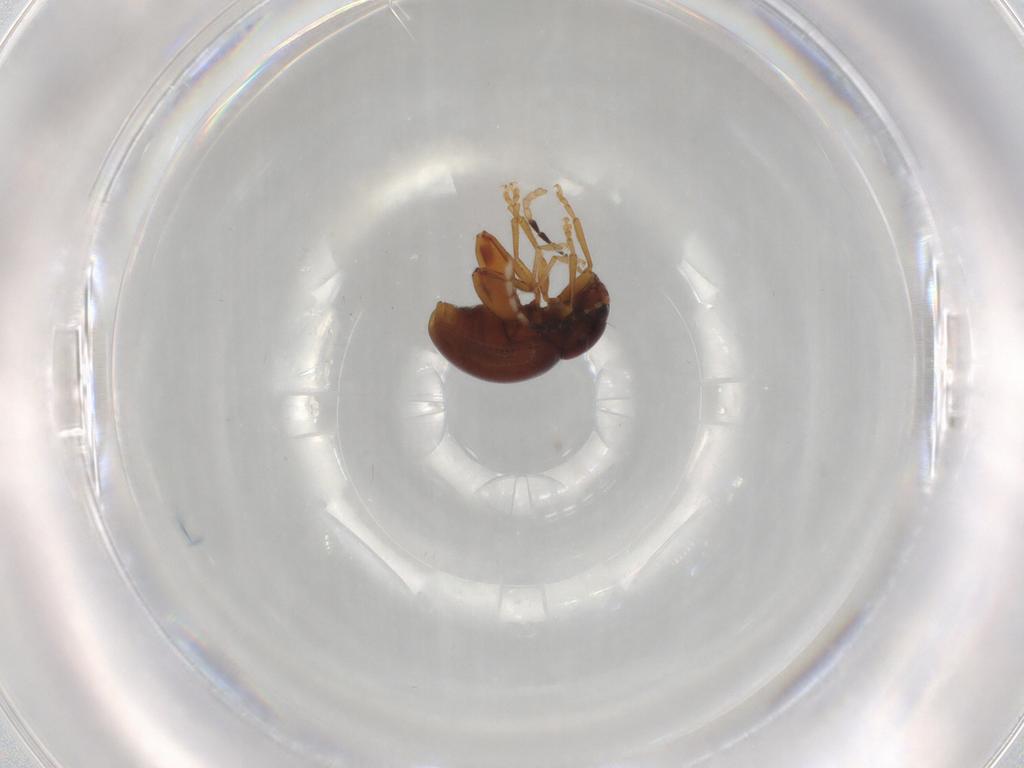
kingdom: Animalia
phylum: Arthropoda
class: Insecta
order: Coleoptera
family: Chrysomelidae
